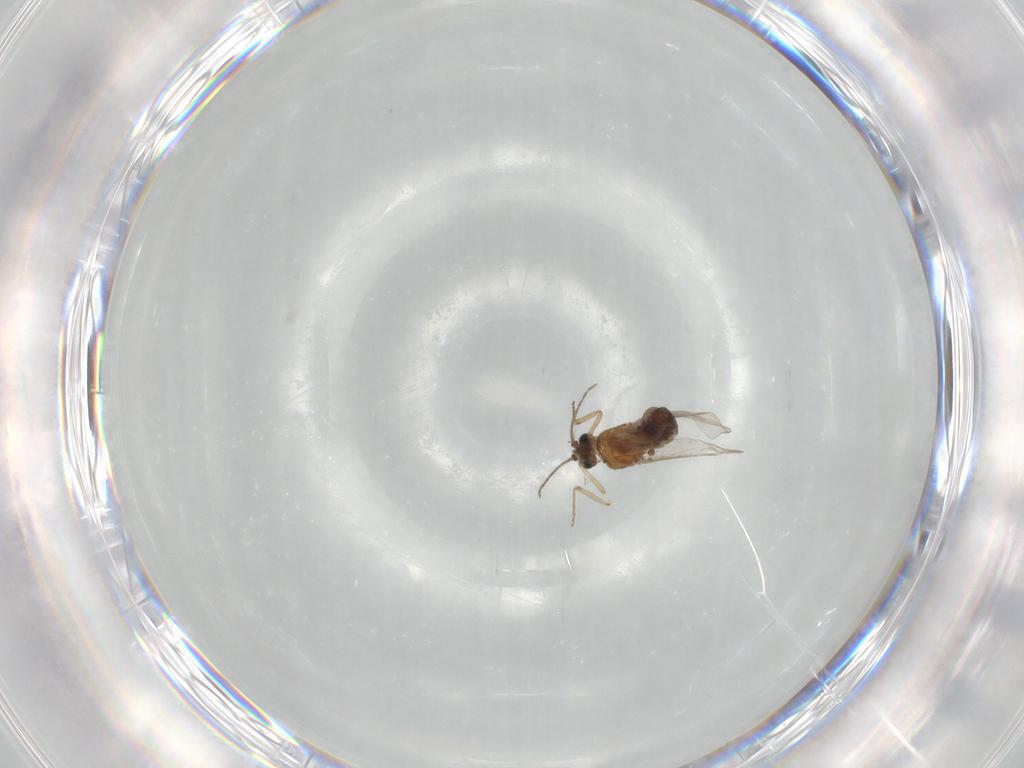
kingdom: Animalia
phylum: Arthropoda
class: Insecta
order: Diptera
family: Ceratopogonidae
